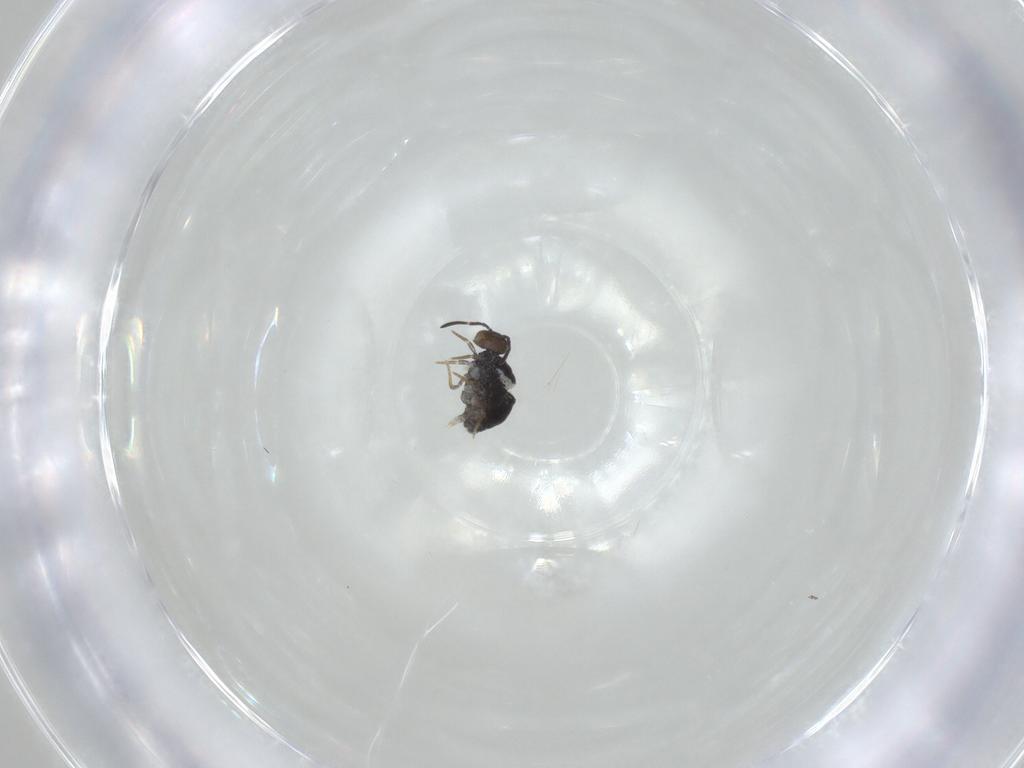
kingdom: Animalia
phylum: Arthropoda
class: Collembola
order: Symphypleona
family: Katiannidae
